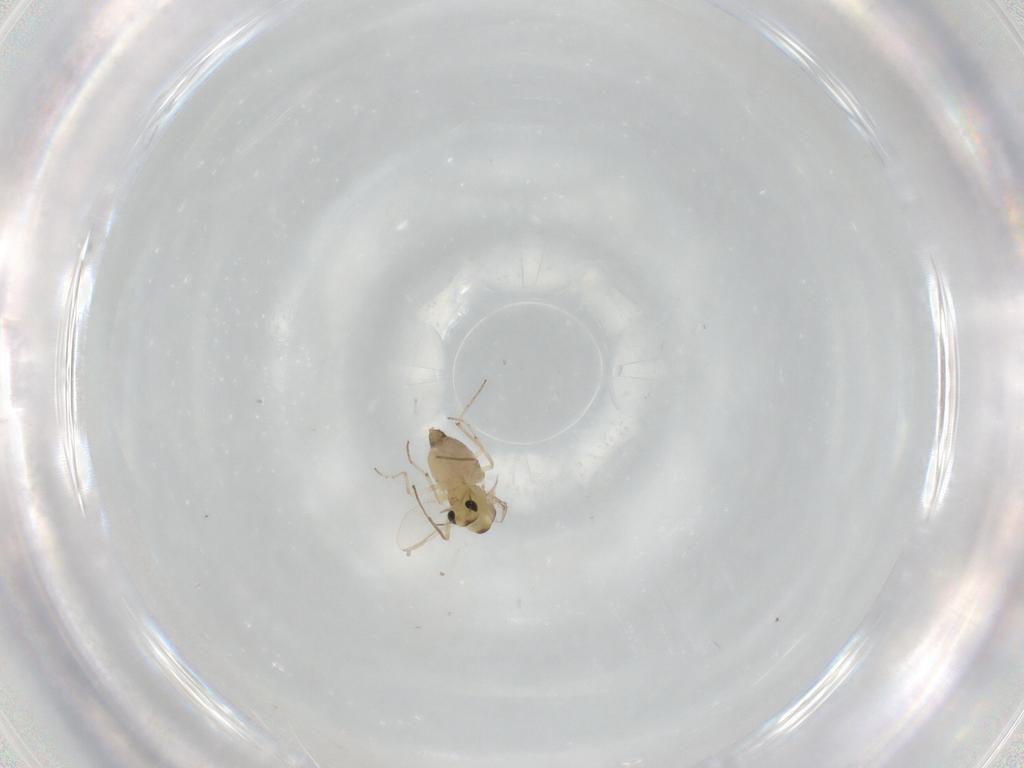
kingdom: Animalia
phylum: Arthropoda
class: Insecta
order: Diptera
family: Chironomidae
